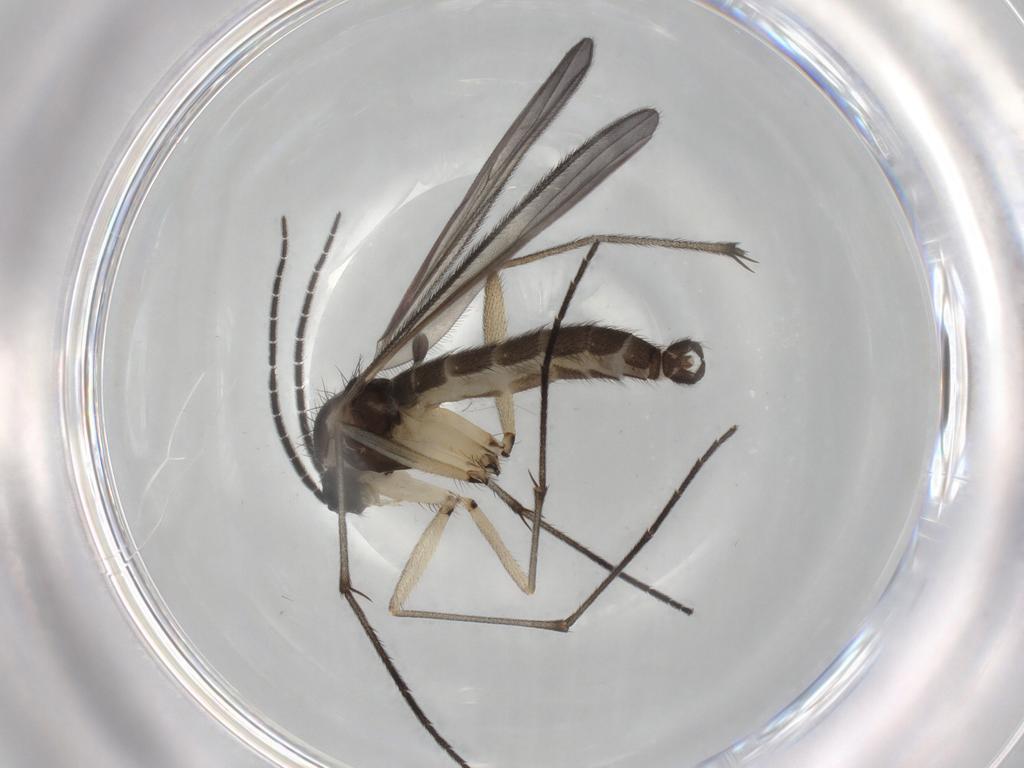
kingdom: Animalia
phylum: Arthropoda
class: Insecta
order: Diptera
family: Sciaridae
